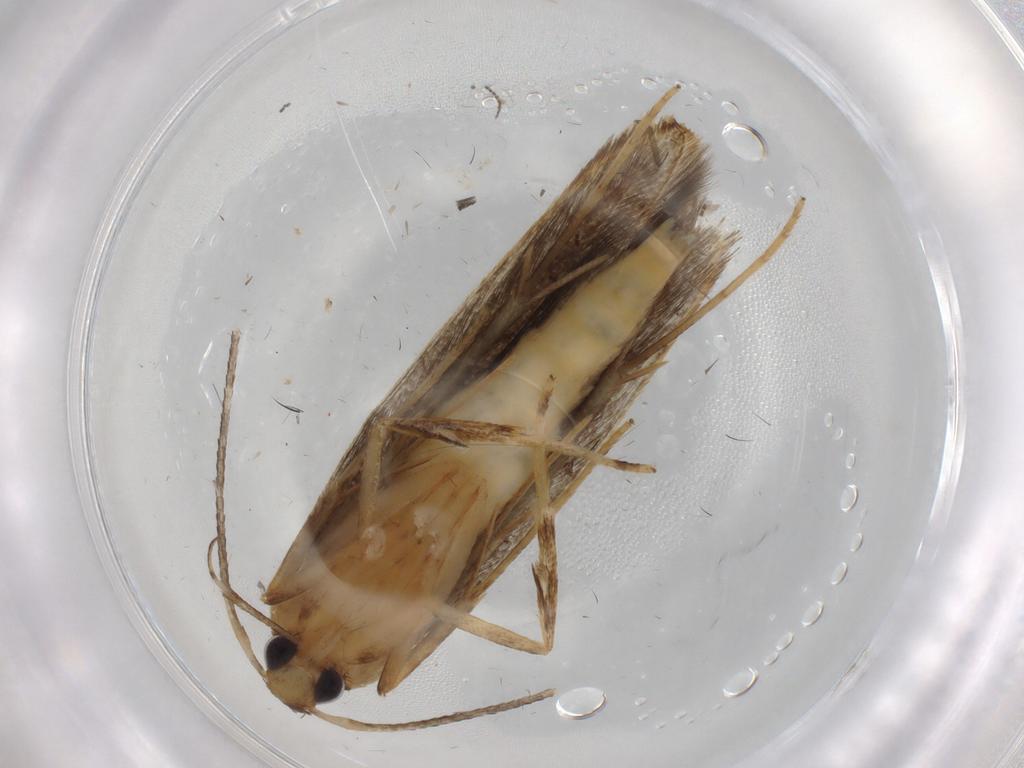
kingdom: Animalia
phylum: Arthropoda
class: Insecta
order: Lepidoptera
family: Pterolonchidae
